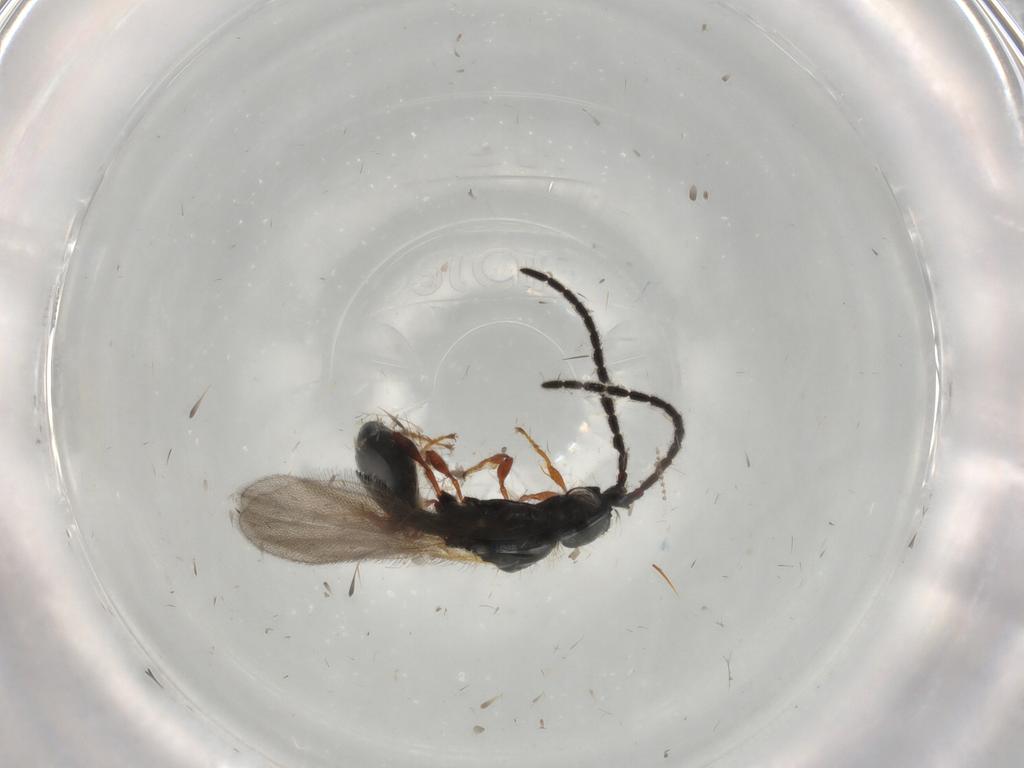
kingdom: Animalia
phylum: Arthropoda
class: Insecta
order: Hymenoptera
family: Diapriidae
